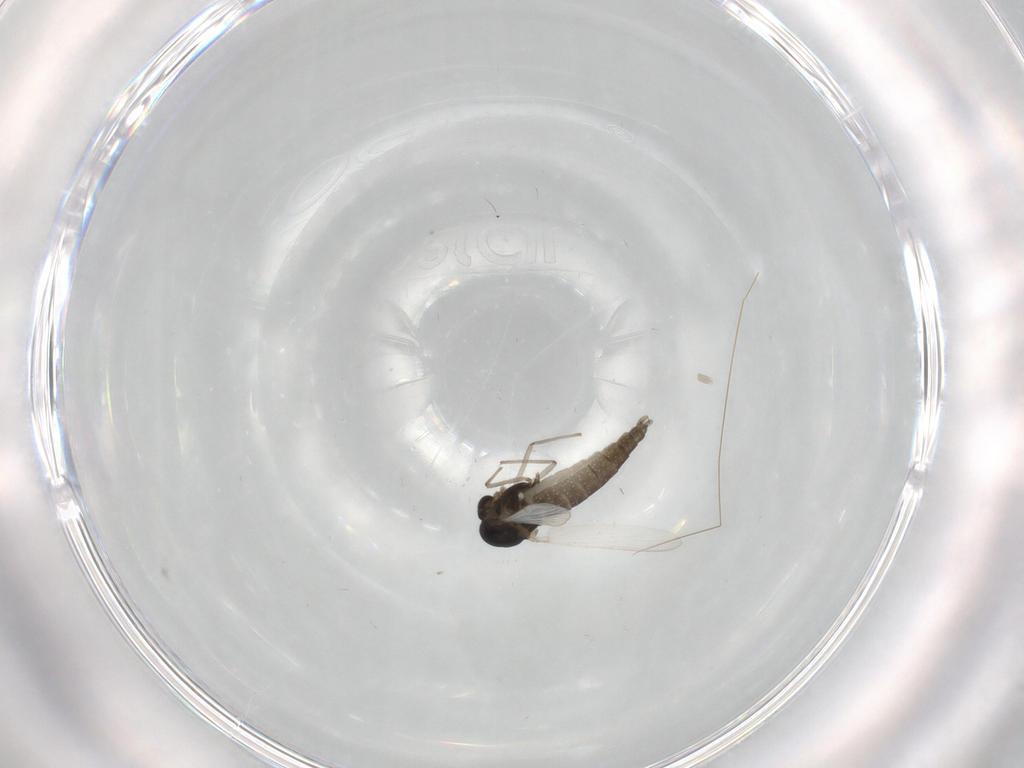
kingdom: Animalia
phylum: Arthropoda
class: Insecta
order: Diptera
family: Chironomidae
